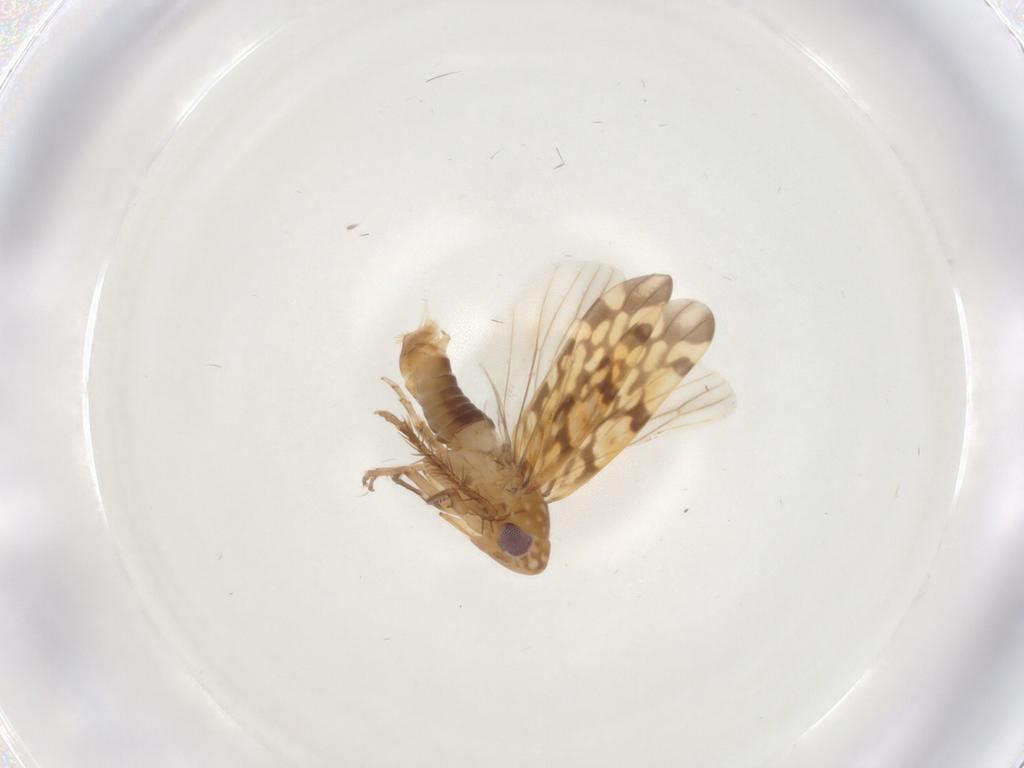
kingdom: Animalia
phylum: Arthropoda
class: Insecta
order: Hemiptera
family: Cicadellidae
